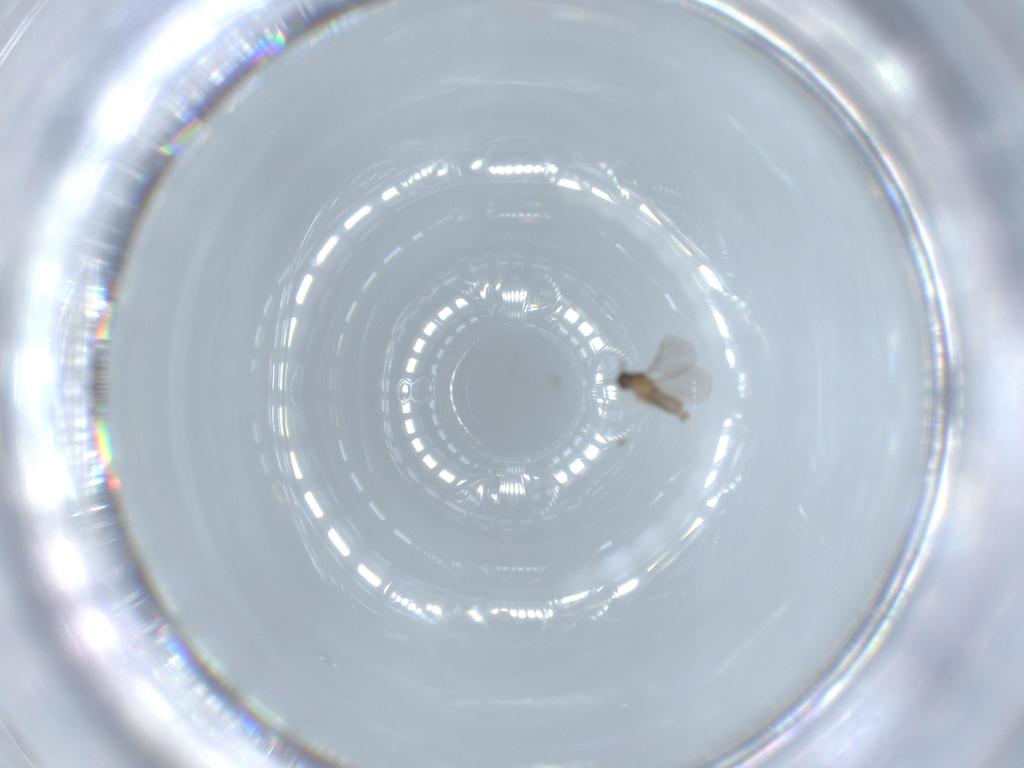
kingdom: Animalia
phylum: Arthropoda
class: Insecta
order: Diptera
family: Cecidomyiidae
